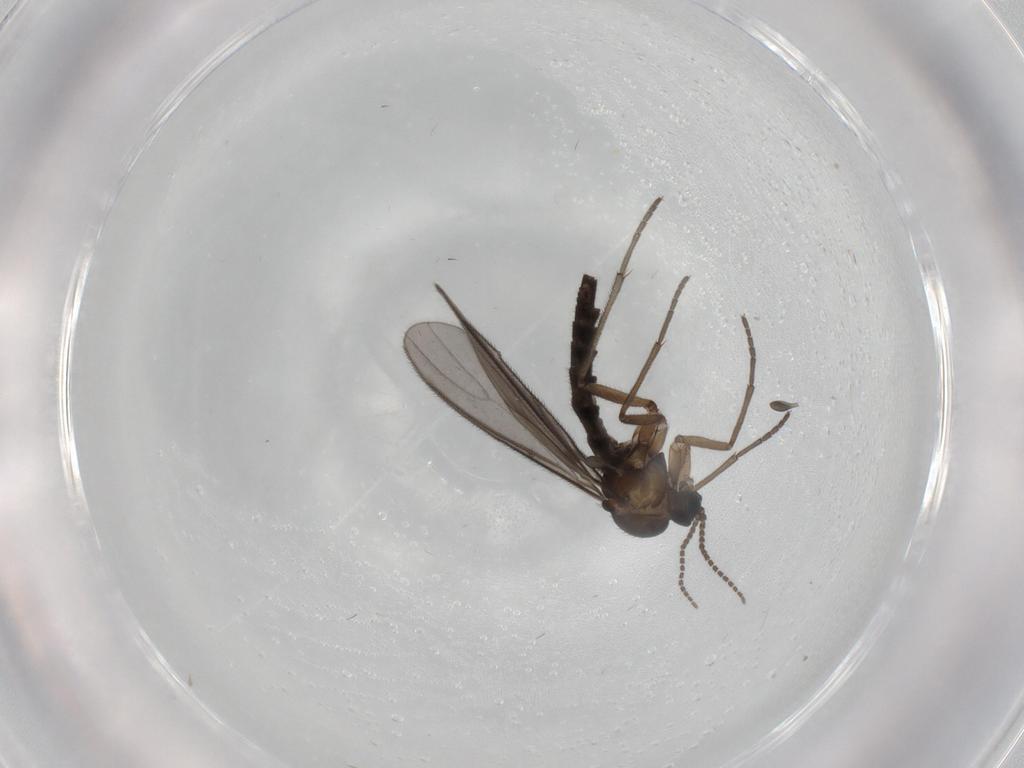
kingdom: Animalia
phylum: Arthropoda
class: Insecta
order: Diptera
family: Sciaridae
